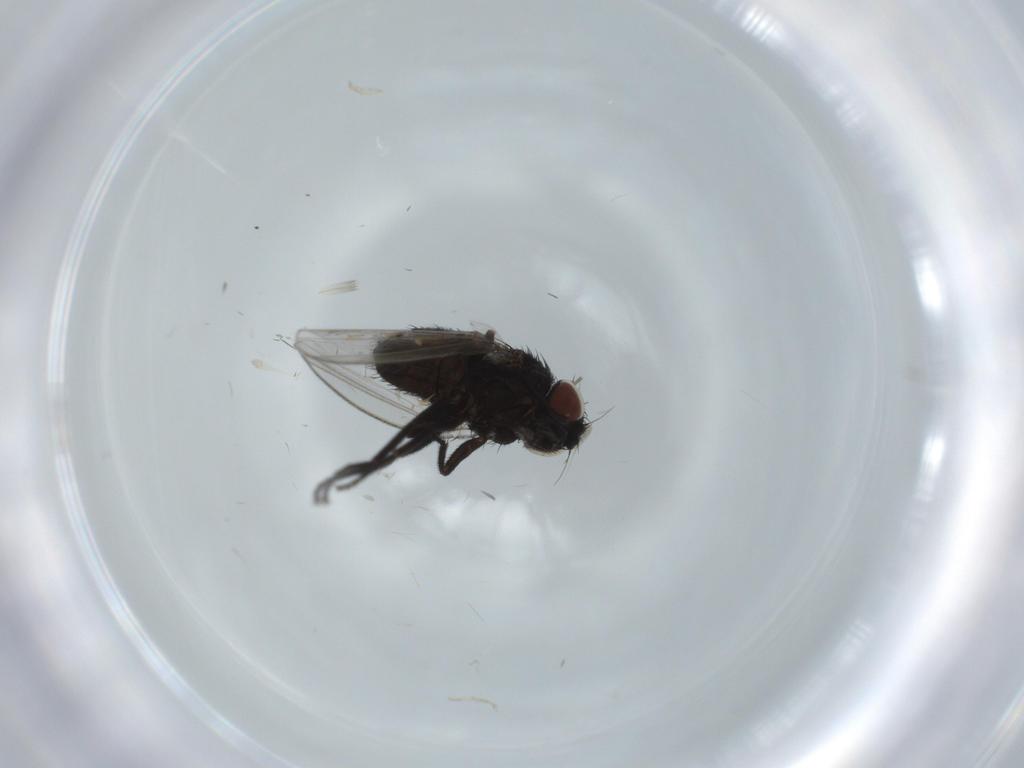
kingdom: Animalia
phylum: Arthropoda
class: Insecta
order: Diptera
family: Milichiidae
